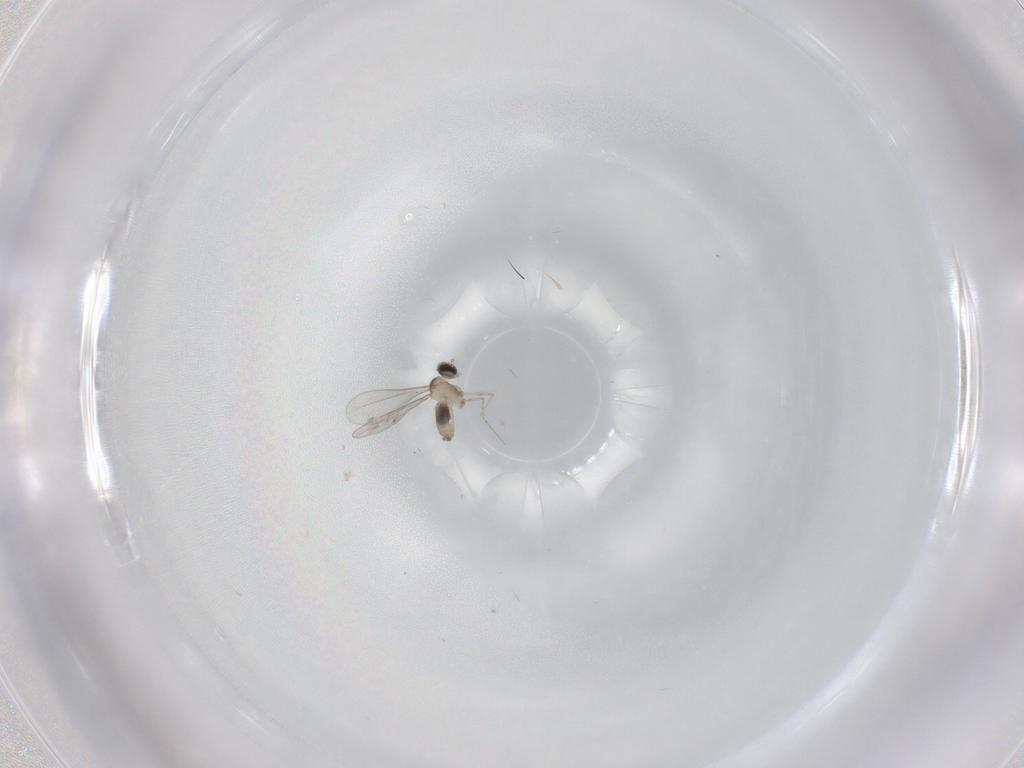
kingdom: Animalia
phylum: Arthropoda
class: Insecta
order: Diptera
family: Cecidomyiidae
